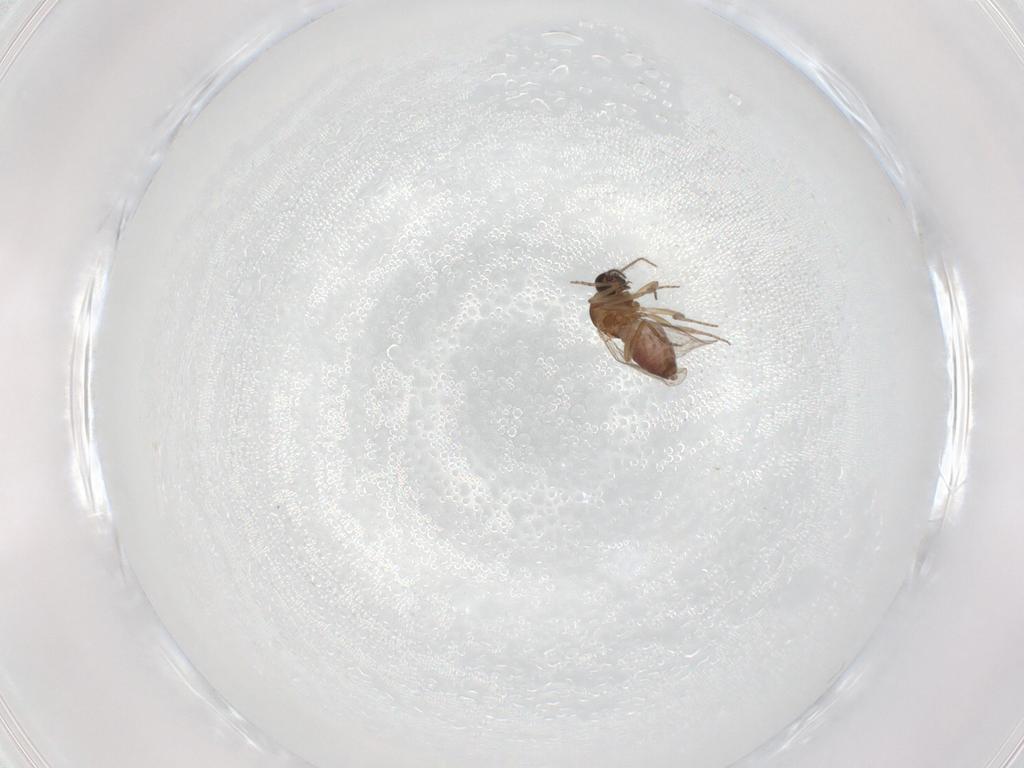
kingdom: Animalia
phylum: Arthropoda
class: Insecta
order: Diptera
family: Ceratopogonidae
